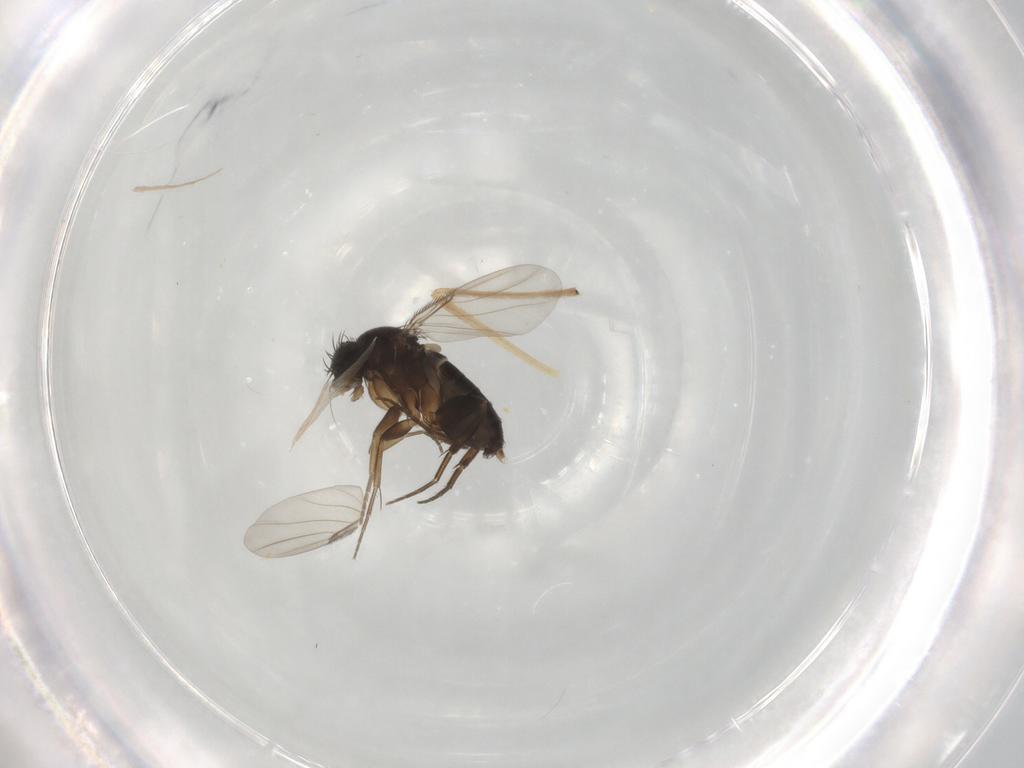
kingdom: Animalia
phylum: Arthropoda
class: Insecta
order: Diptera
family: Phoridae
